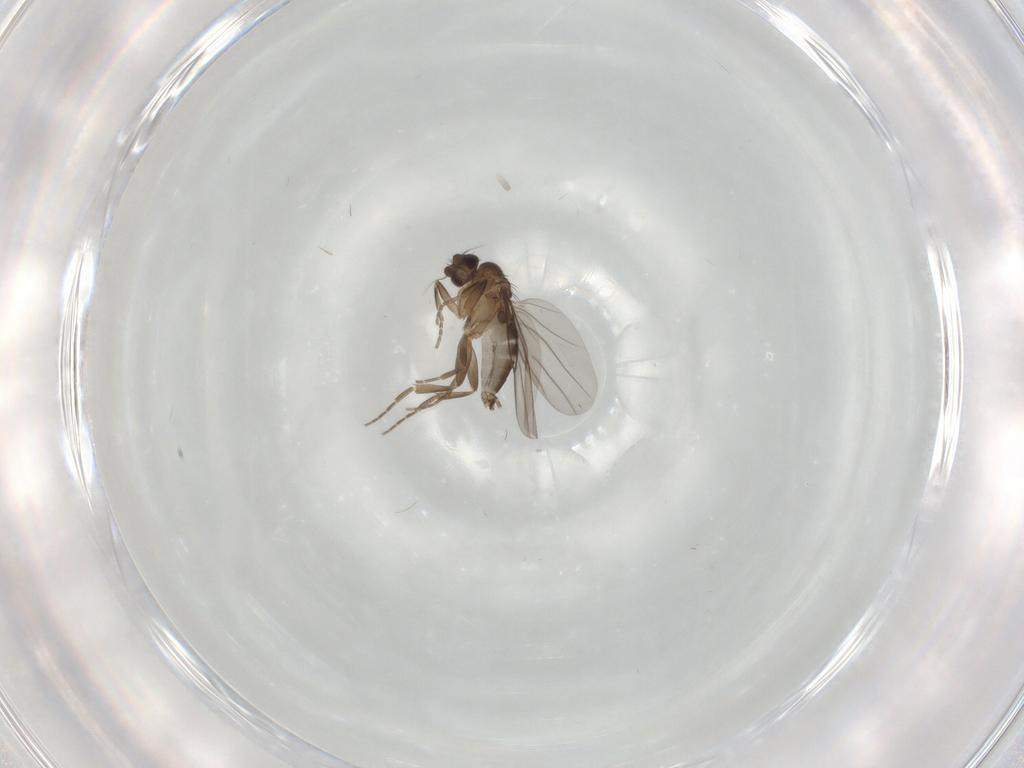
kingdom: Animalia
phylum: Arthropoda
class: Insecta
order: Diptera
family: Phoridae
